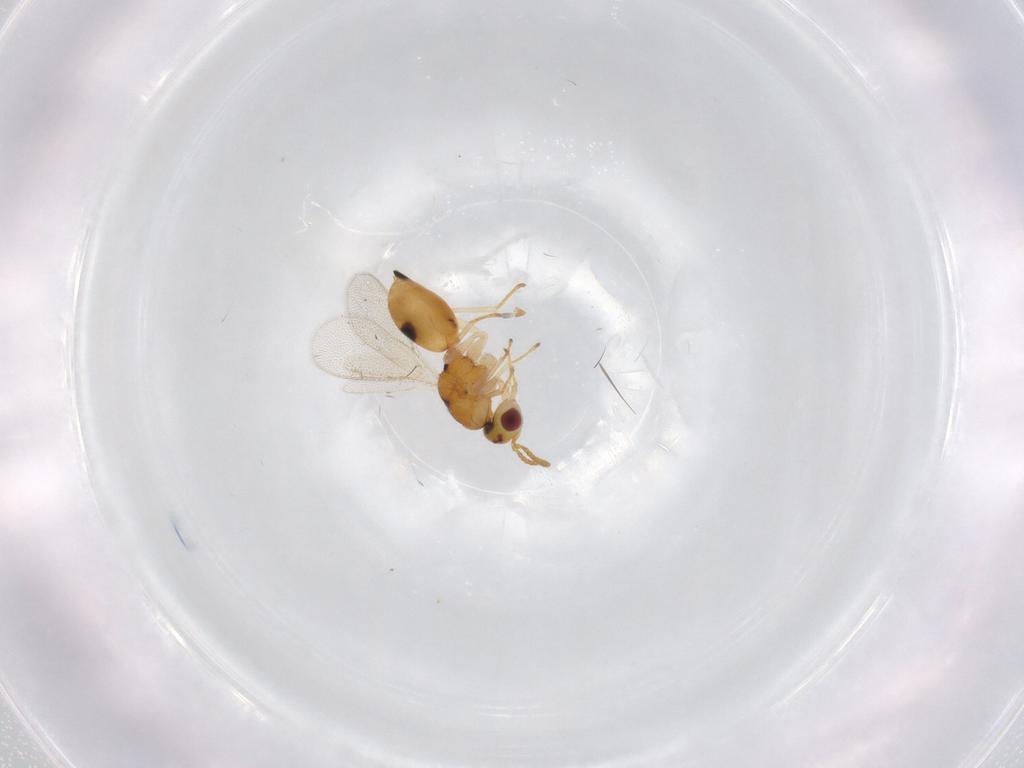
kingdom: Animalia
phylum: Arthropoda
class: Insecta
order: Hymenoptera
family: Eurytomidae
